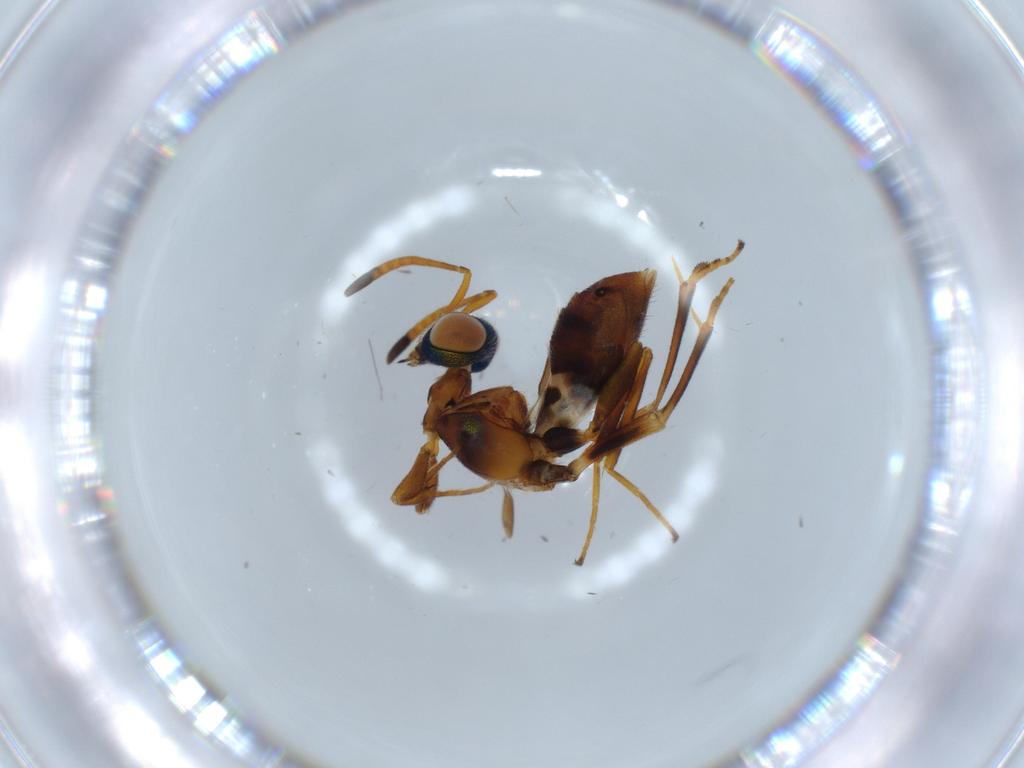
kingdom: Animalia
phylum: Arthropoda
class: Insecta
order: Hymenoptera
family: Eupelmidae
